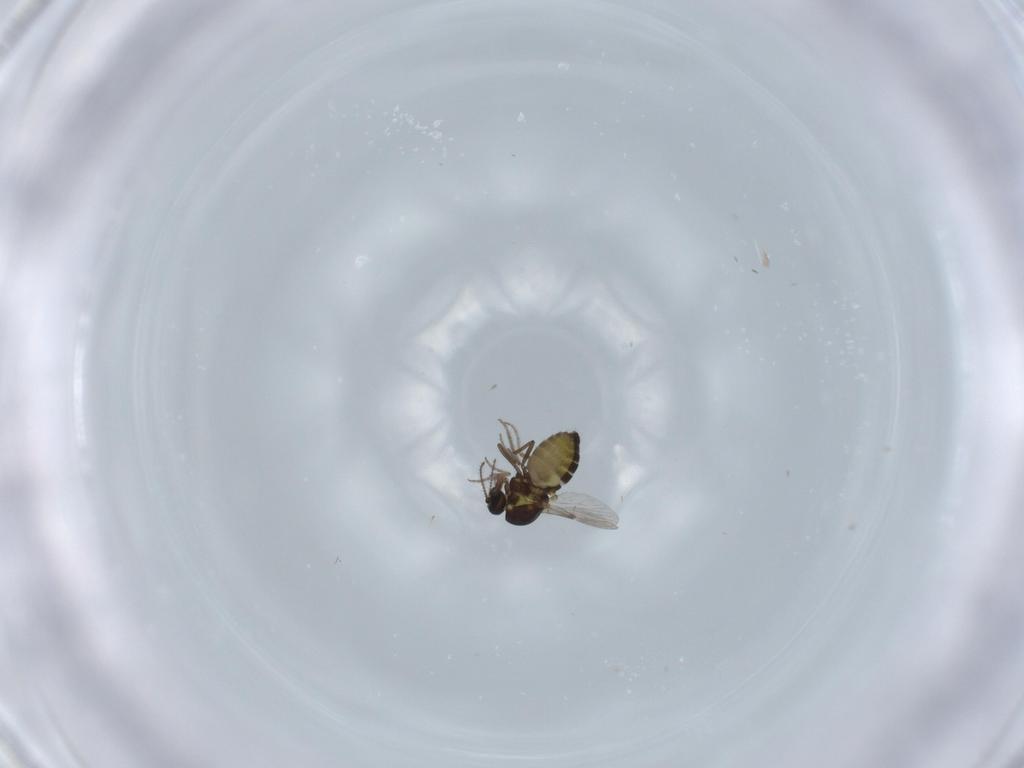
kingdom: Animalia
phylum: Arthropoda
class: Insecta
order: Diptera
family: Ceratopogonidae
